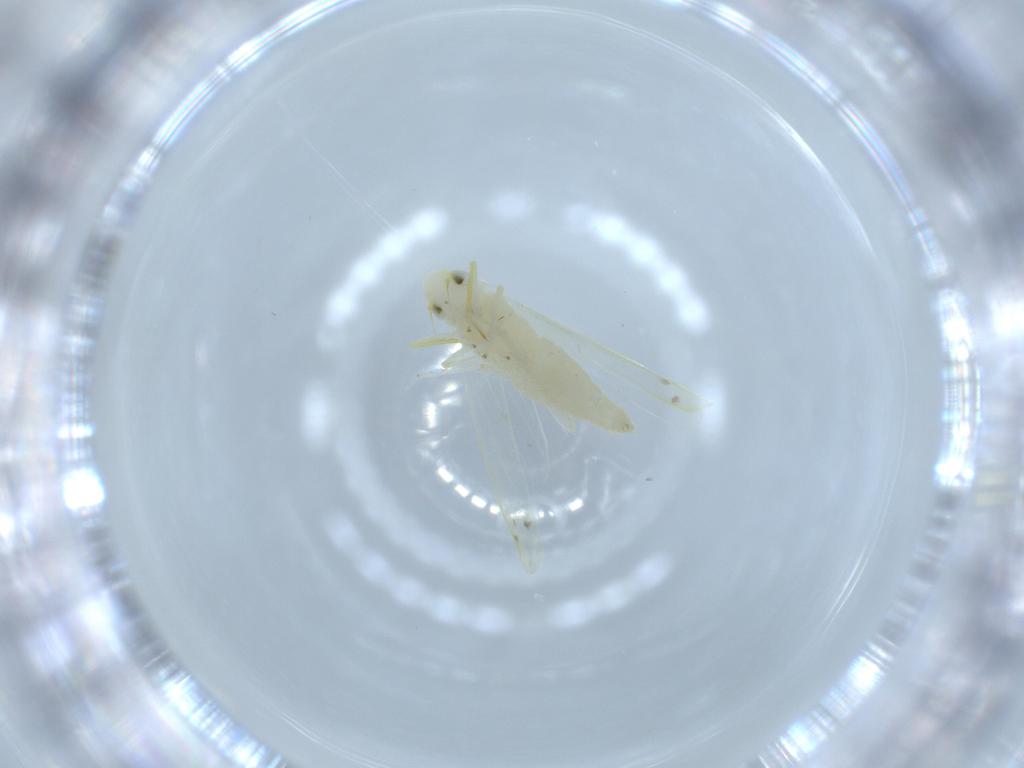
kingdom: Animalia
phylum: Arthropoda
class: Insecta
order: Hemiptera
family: Cicadellidae
